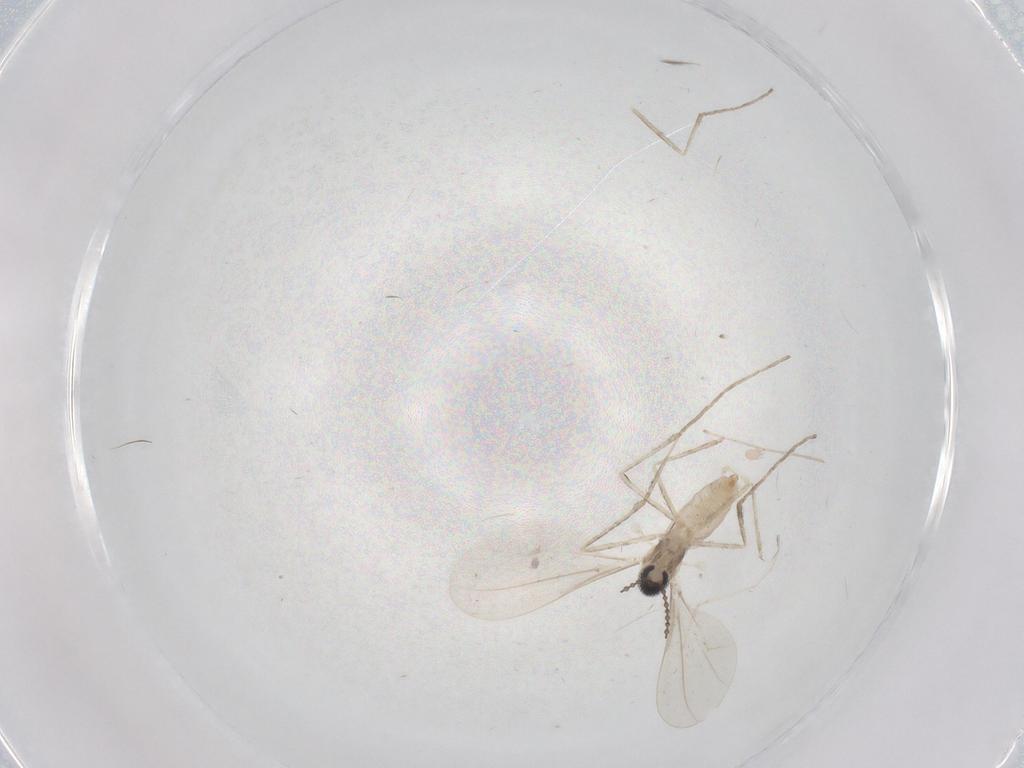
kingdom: Animalia
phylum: Arthropoda
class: Insecta
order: Diptera
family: Cecidomyiidae
